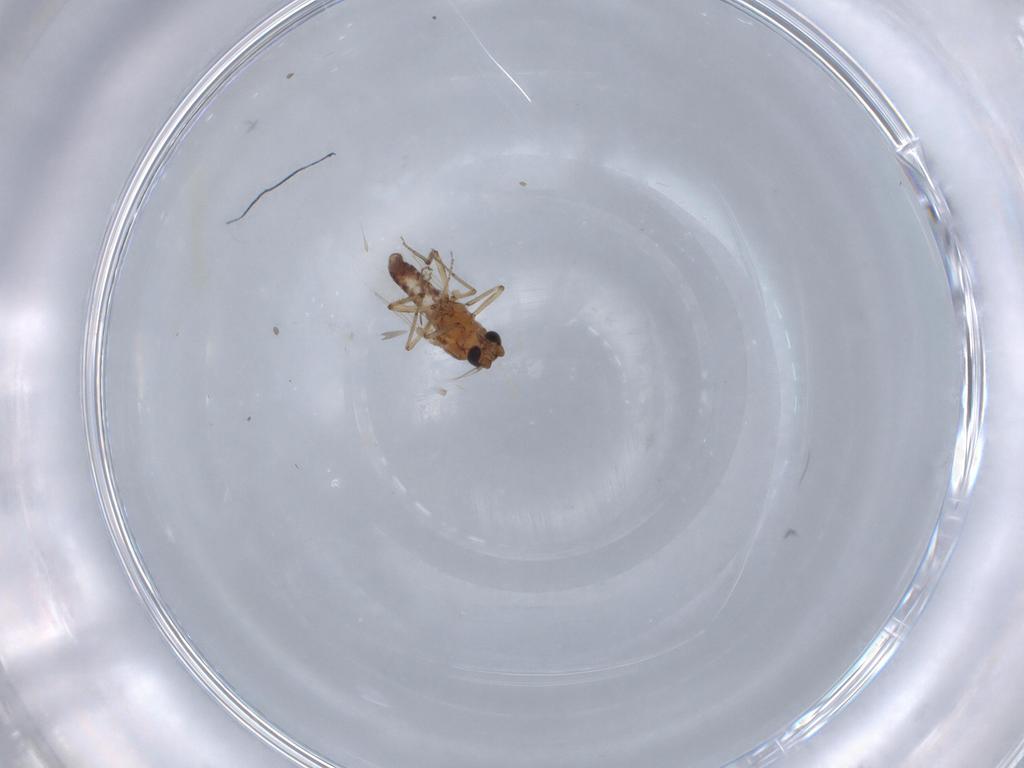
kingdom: Animalia
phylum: Arthropoda
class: Insecta
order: Diptera
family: Ceratopogonidae
